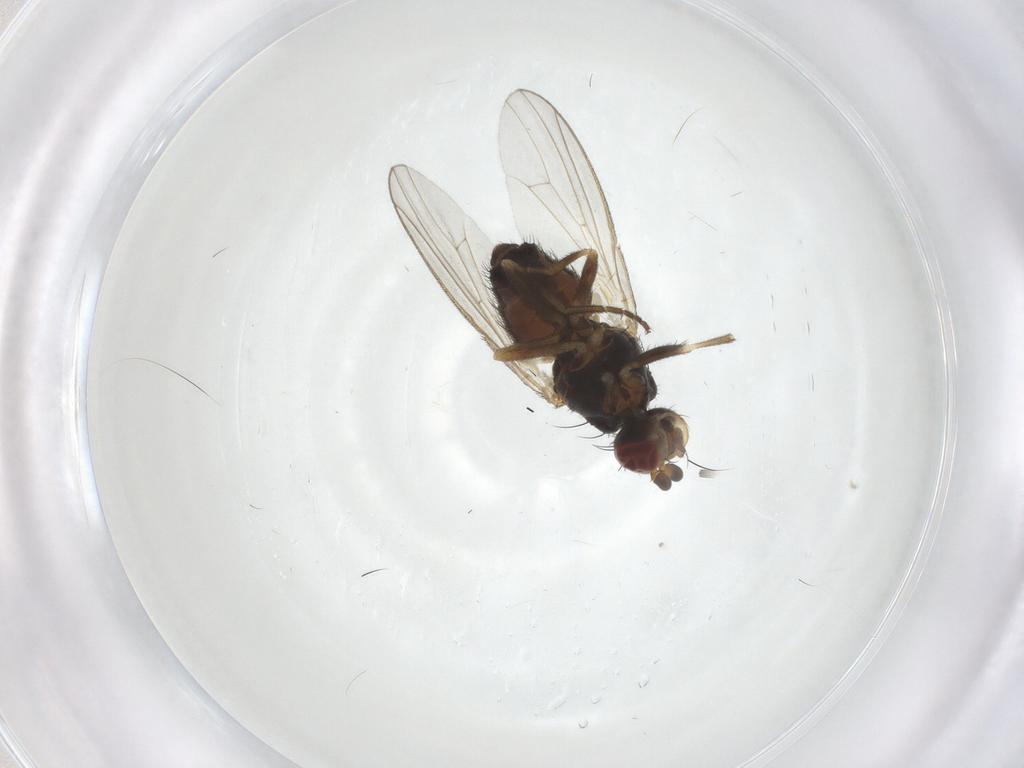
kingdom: Animalia
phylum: Arthropoda
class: Insecta
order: Diptera
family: Heleomyzidae
